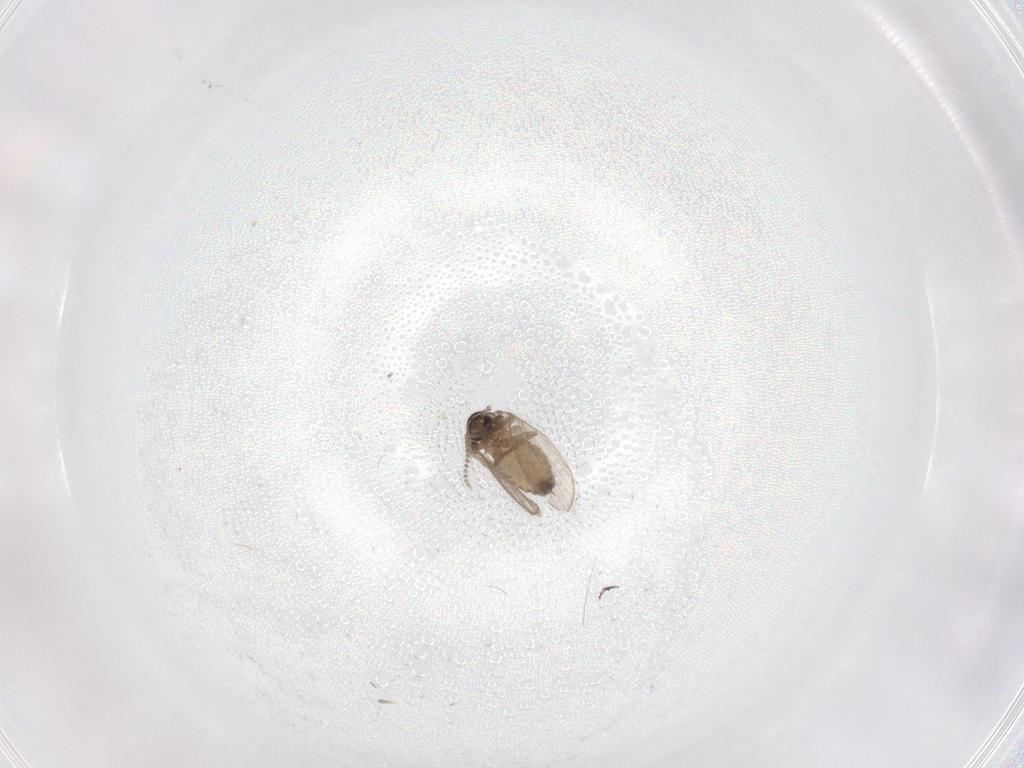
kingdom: Animalia
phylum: Arthropoda
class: Insecta
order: Diptera
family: Psychodidae
